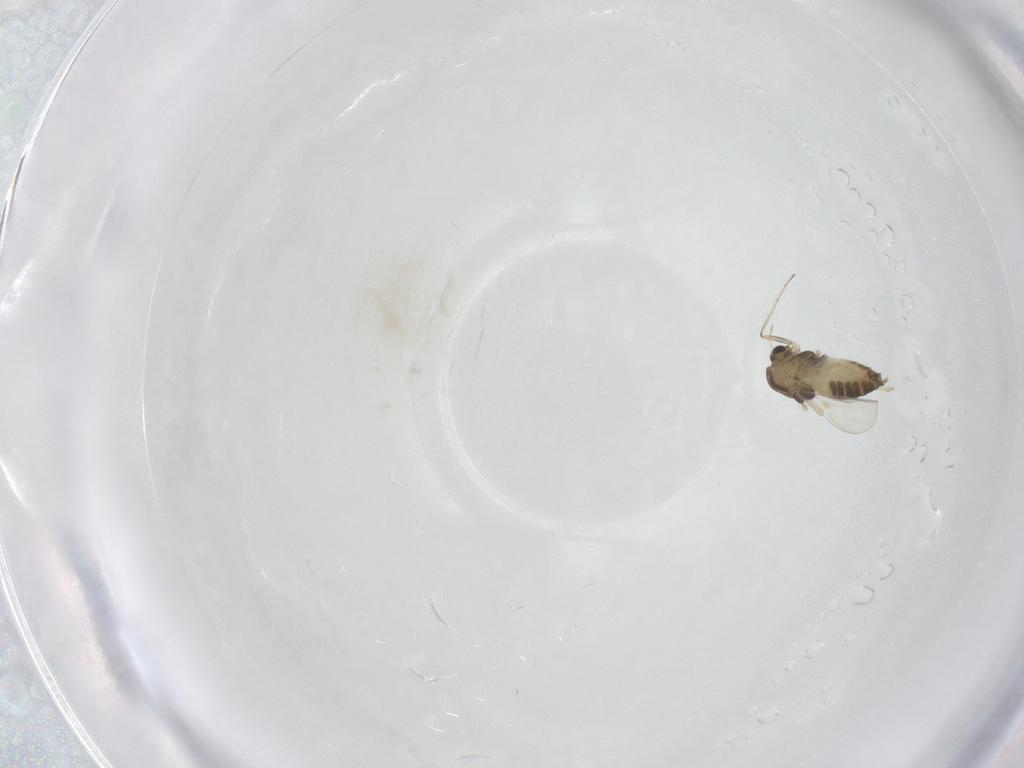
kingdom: Animalia
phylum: Arthropoda
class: Insecta
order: Diptera
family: Chironomidae
